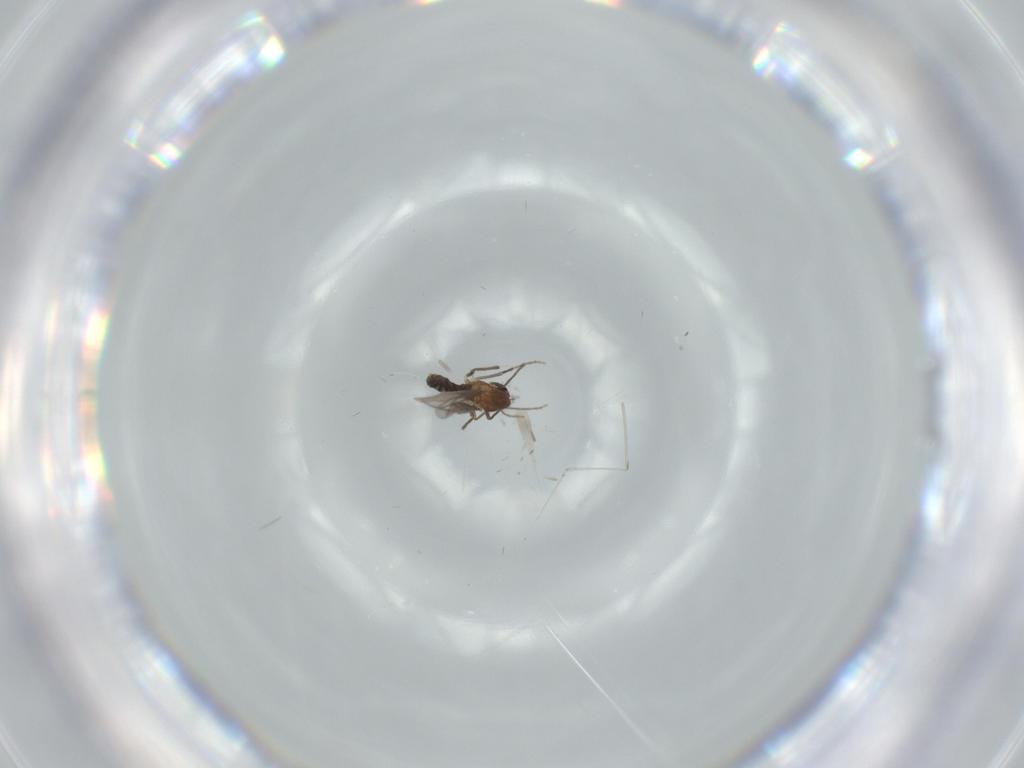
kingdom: Animalia
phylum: Arthropoda
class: Insecta
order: Diptera
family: Chironomidae
